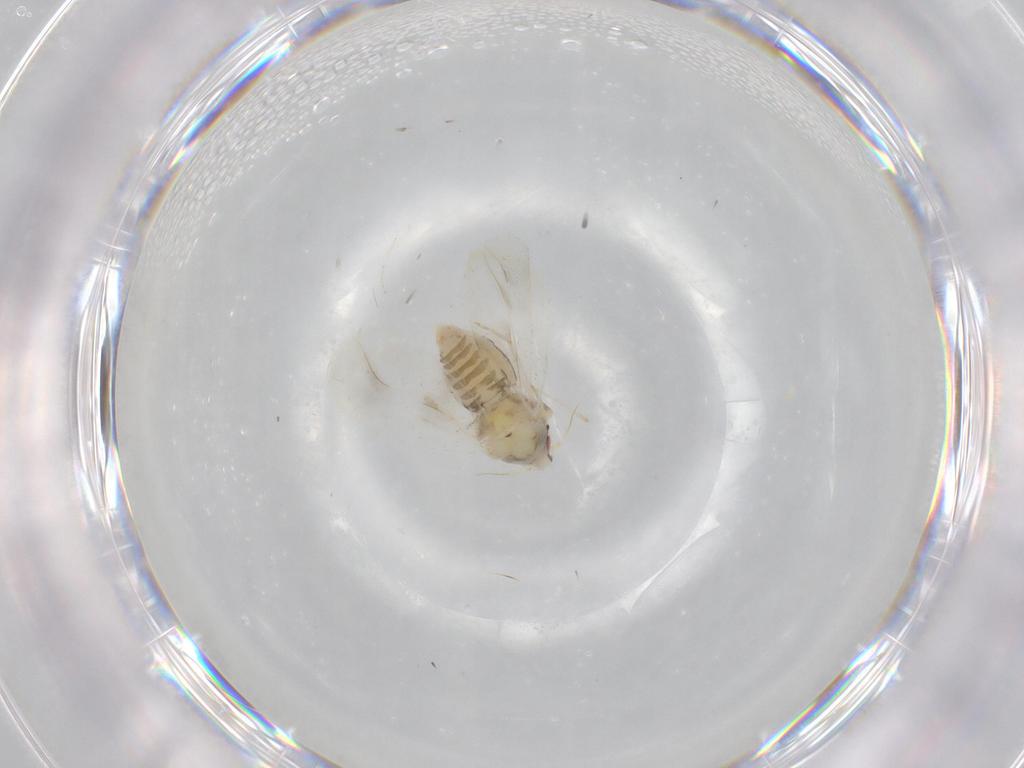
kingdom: Animalia
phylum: Arthropoda
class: Insecta
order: Hemiptera
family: Aleyrodidae
